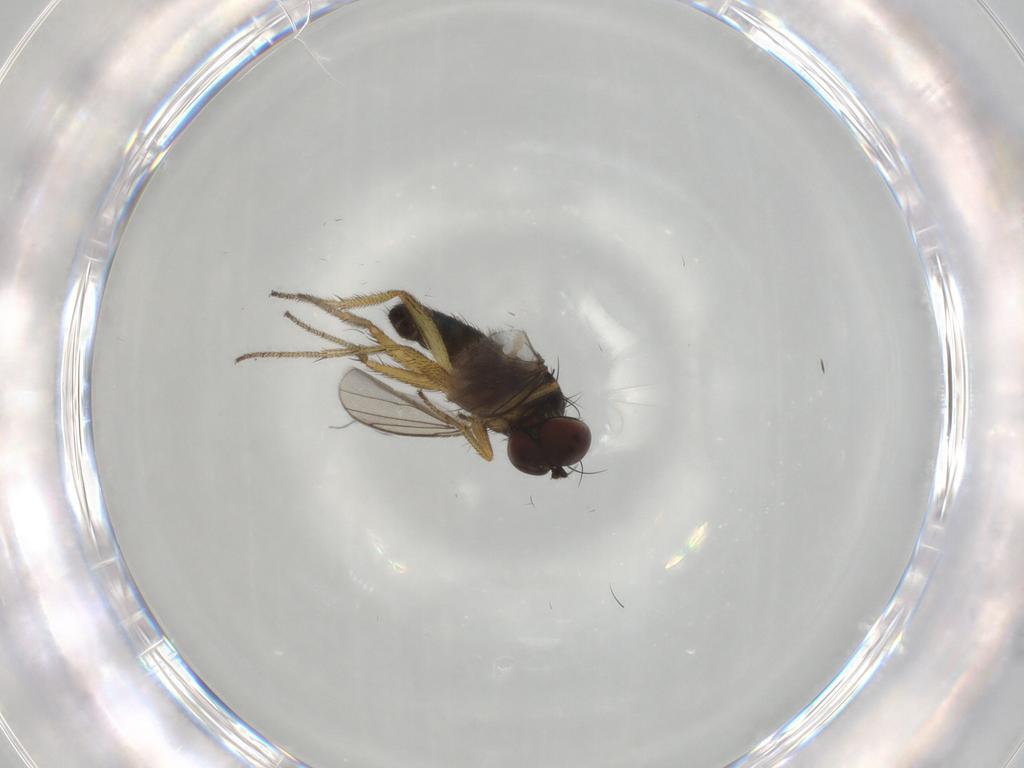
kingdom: Animalia
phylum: Arthropoda
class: Insecta
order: Diptera
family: Dolichopodidae
